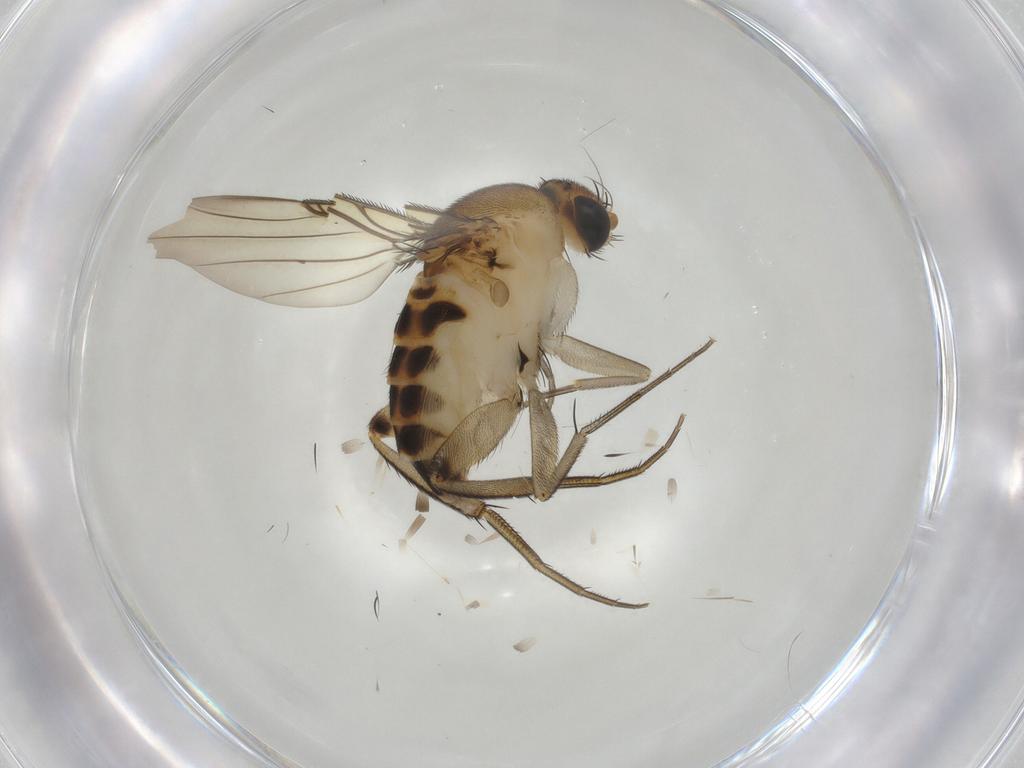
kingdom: Animalia
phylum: Arthropoda
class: Insecta
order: Diptera
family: Phoridae
